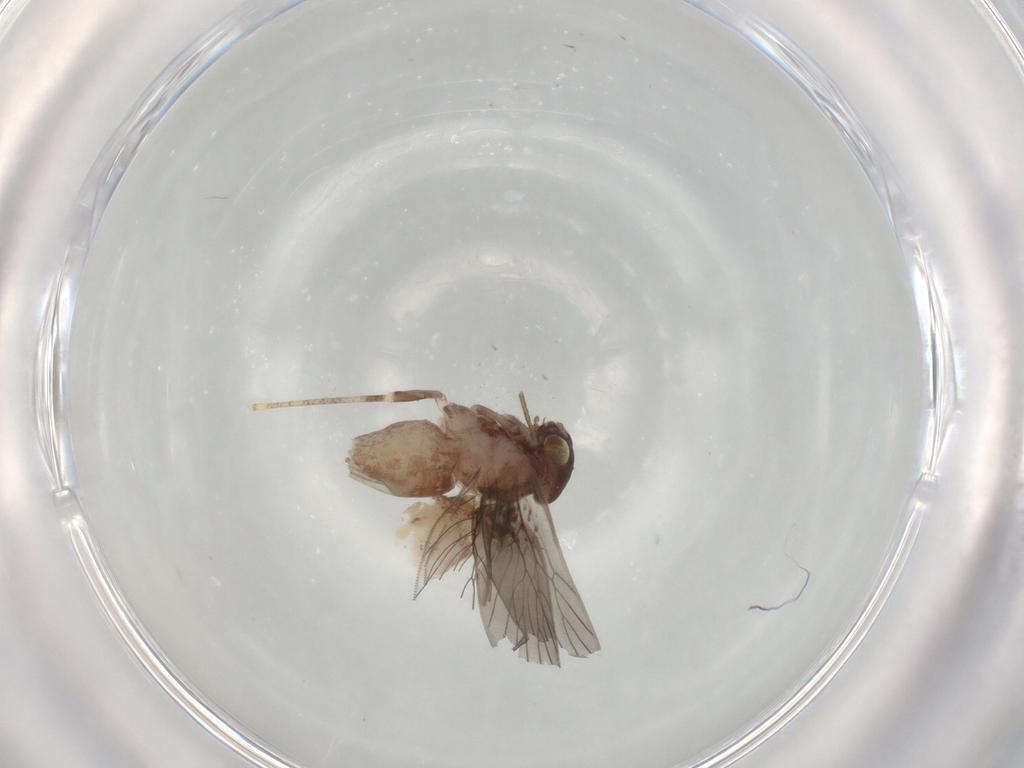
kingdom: Animalia
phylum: Arthropoda
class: Insecta
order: Psocodea
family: Lepidopsocidae
